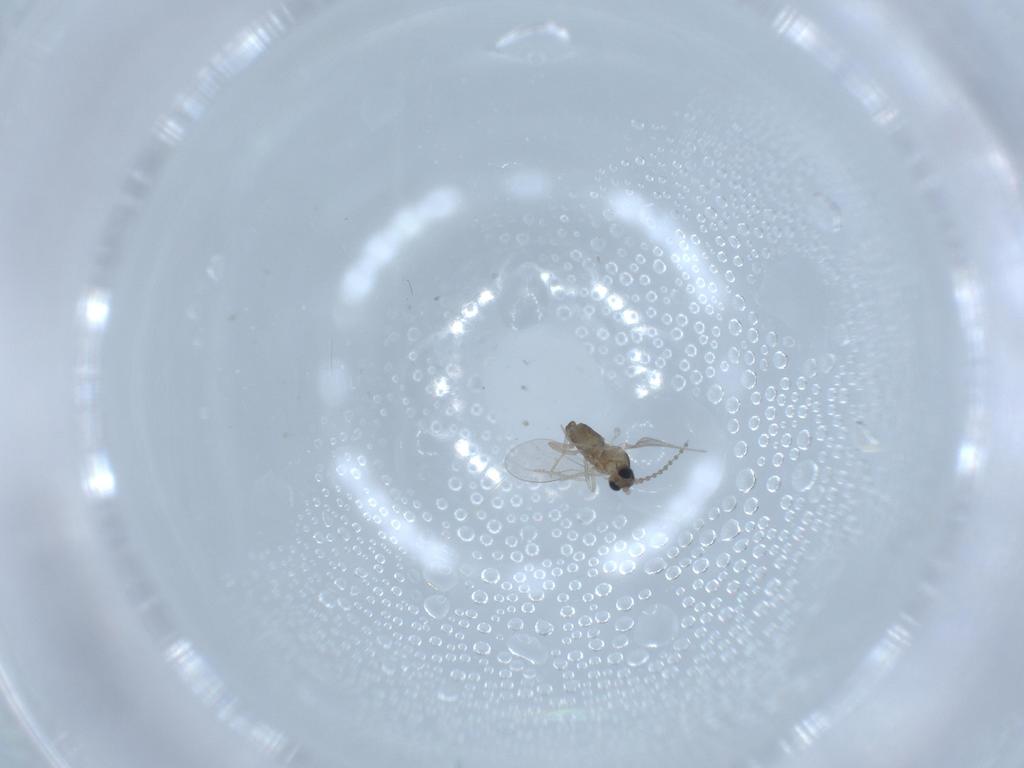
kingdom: Animalia
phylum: Arthropoda
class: Insecta
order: Diptera
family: Cecidomyiidae
